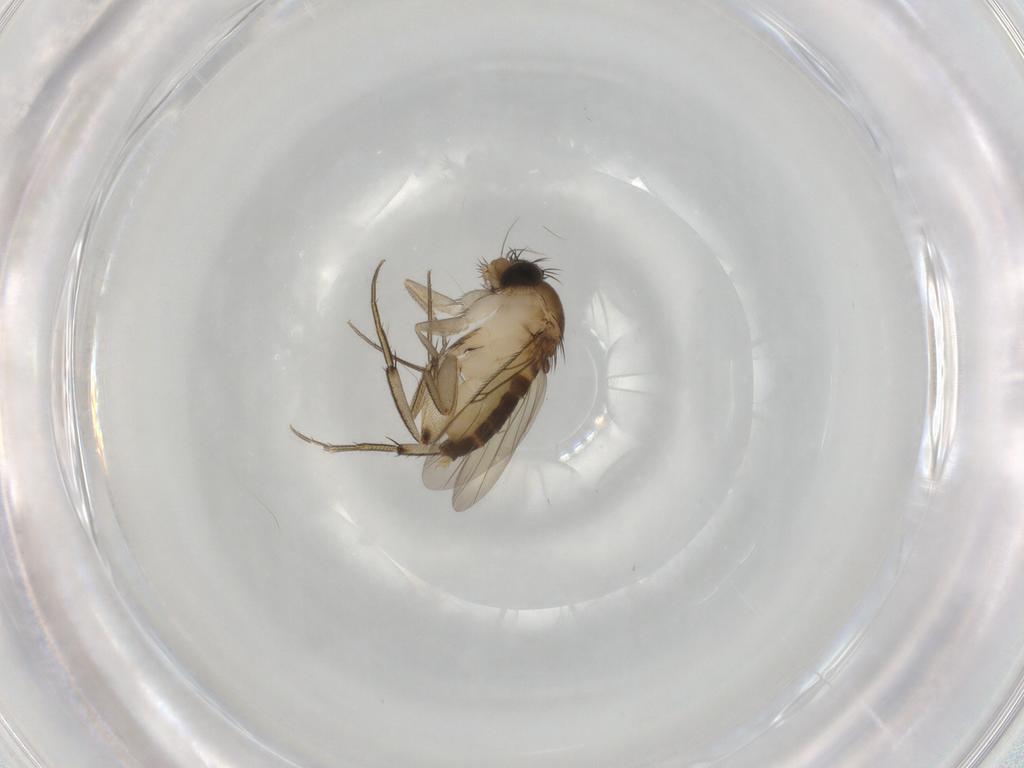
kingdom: Animalia
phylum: Arthropoda
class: Insecta
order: Diptera
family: Phoridae
